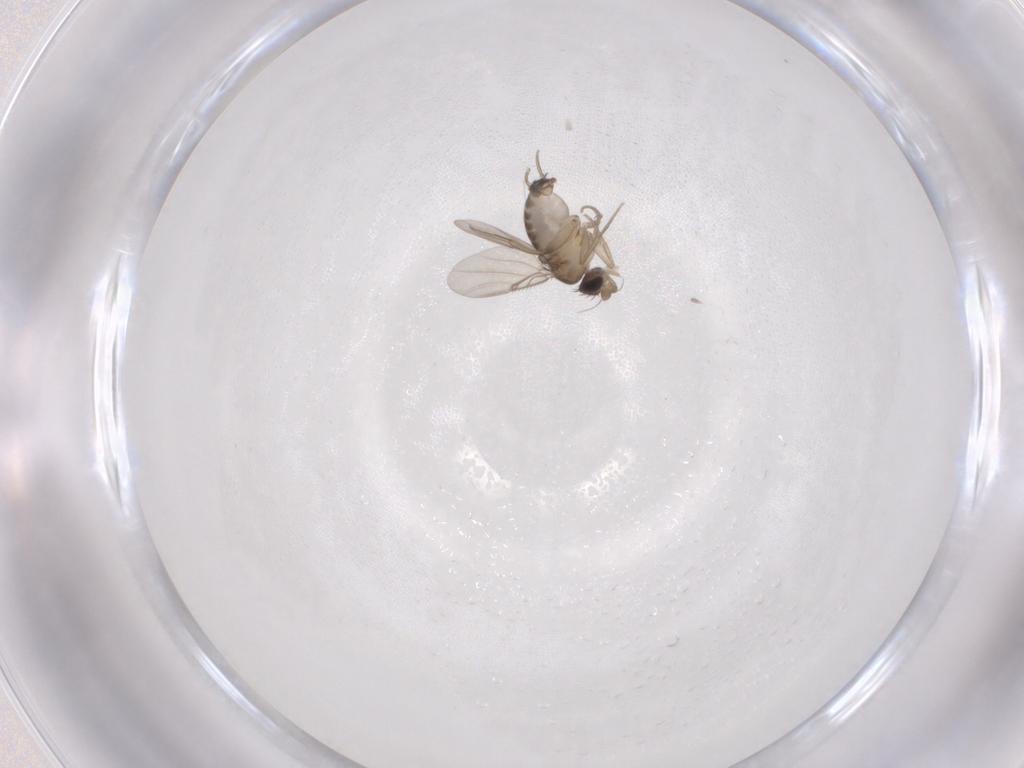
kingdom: Animalia
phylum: Arthropoda
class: Insecta
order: Diptera
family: Phoridae
